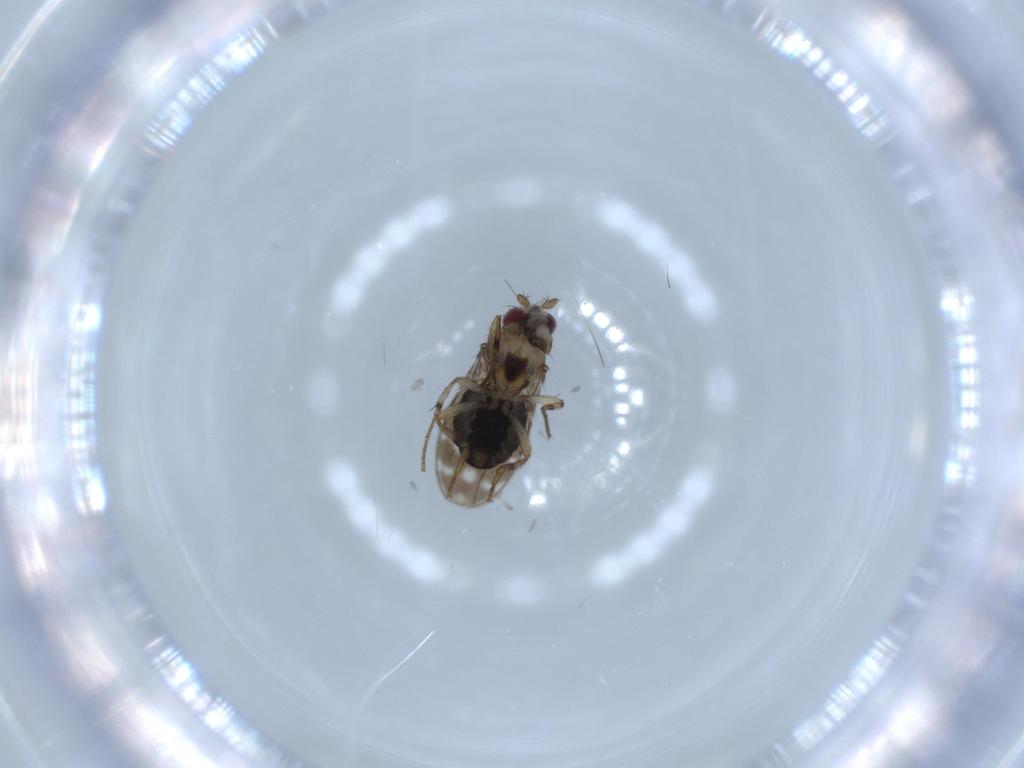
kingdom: Animalia
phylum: Arthropoda
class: Insecta
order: Diptera
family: Sphaeroceridae
